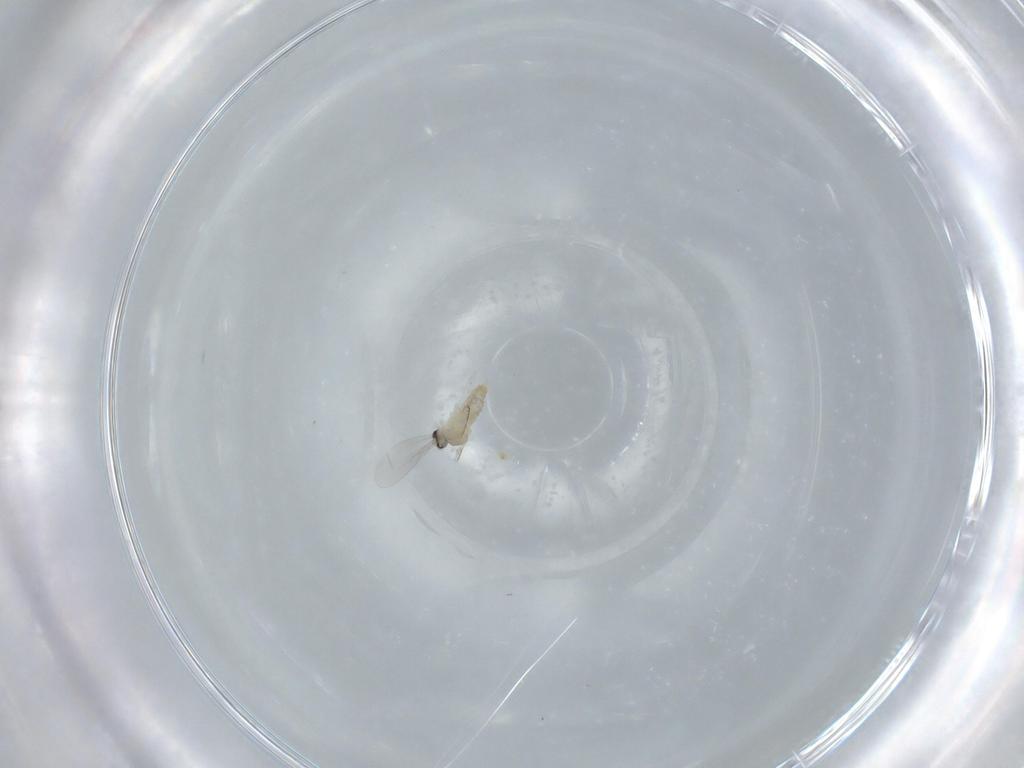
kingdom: Animalia
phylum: Arthropoda
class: Insecta
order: Diptera
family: Cecidomyiidae
